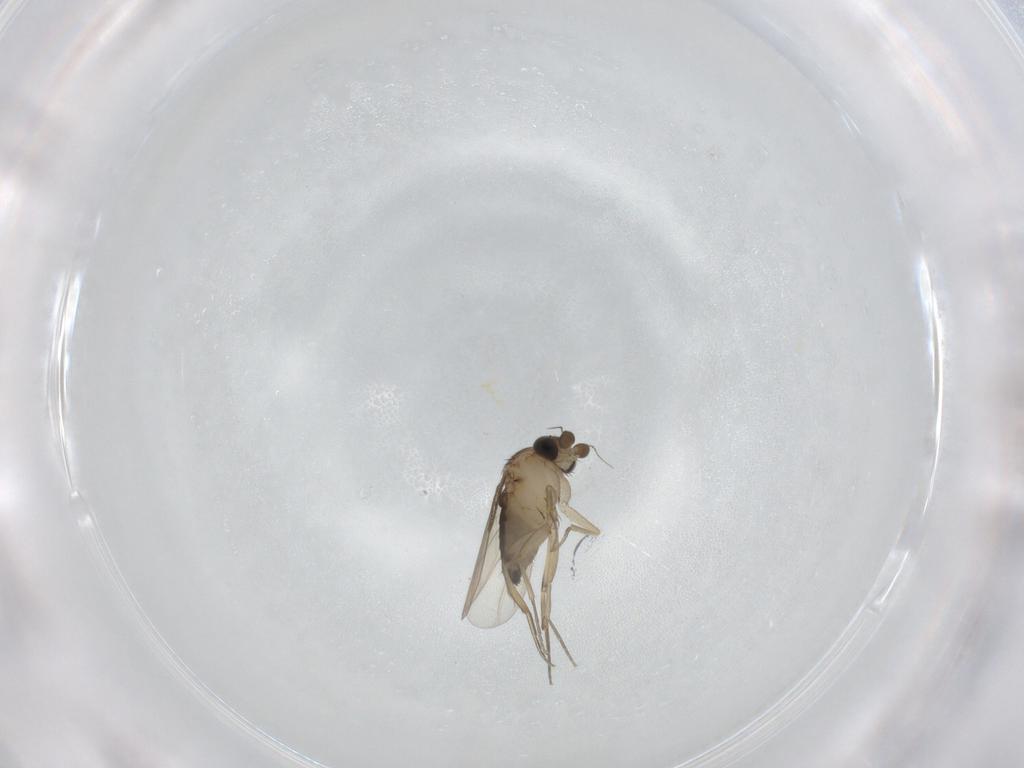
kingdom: Animalia
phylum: Arthropoda
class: Insecta
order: Diptera
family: Phoridae
